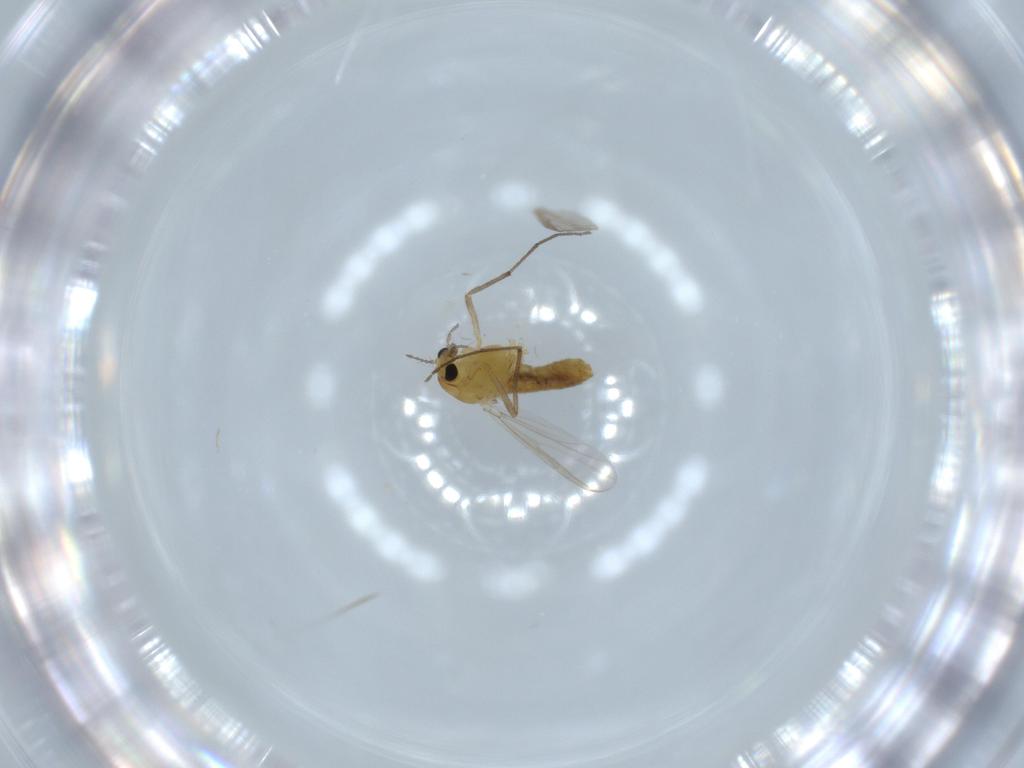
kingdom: Animalia
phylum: Arthropoda
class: Insecta
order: Diptera
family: Chironomidae
